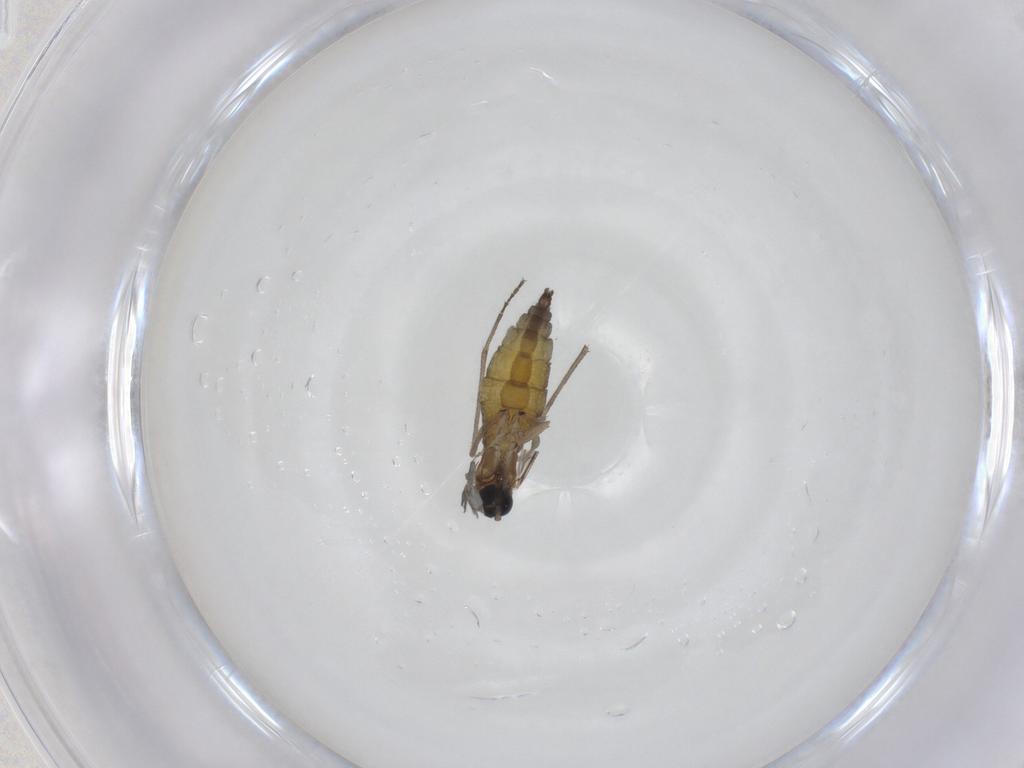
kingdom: Animalia
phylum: Arthropoda
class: Insecta
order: Diptera
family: Sciaridae
